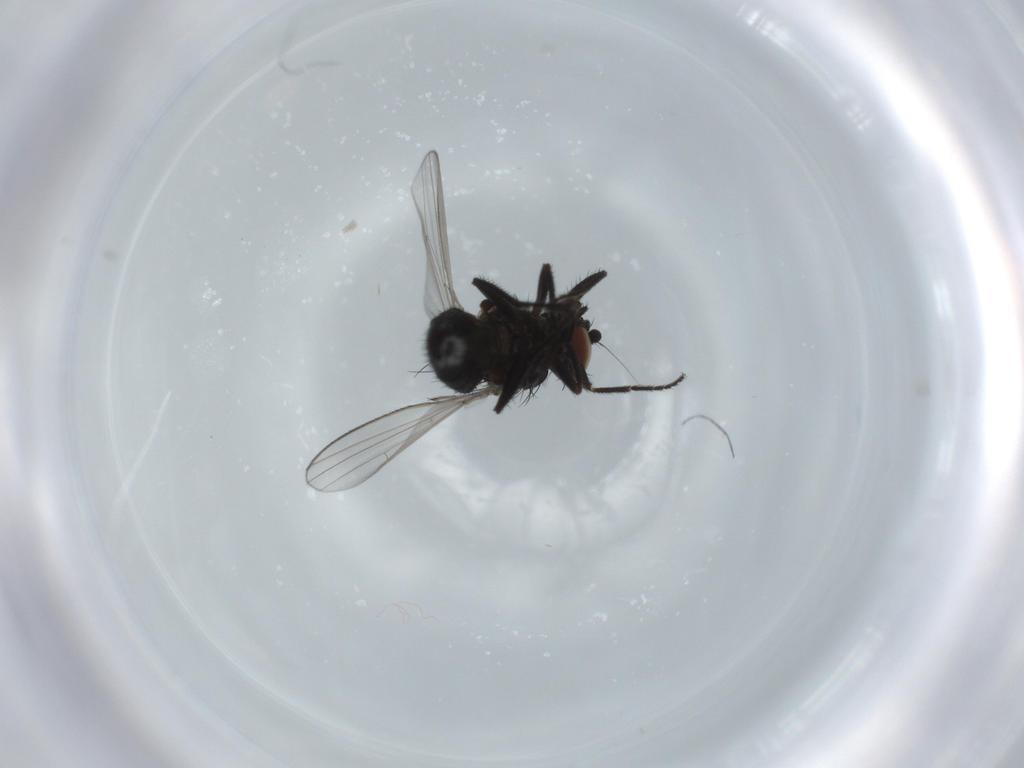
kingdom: Animalia
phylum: Arthropoda
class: Insecta
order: Diptera
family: Milichiidae
